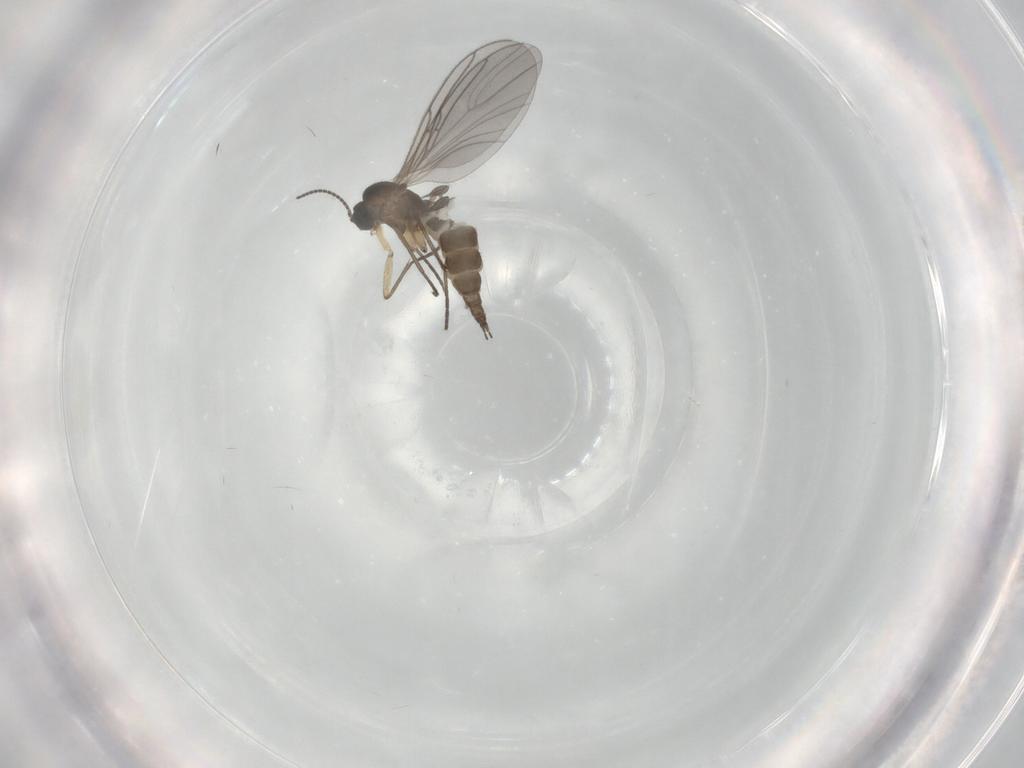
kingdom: Animalia
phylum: Arthropoda
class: Insecta
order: Diptera
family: Sciaridae
